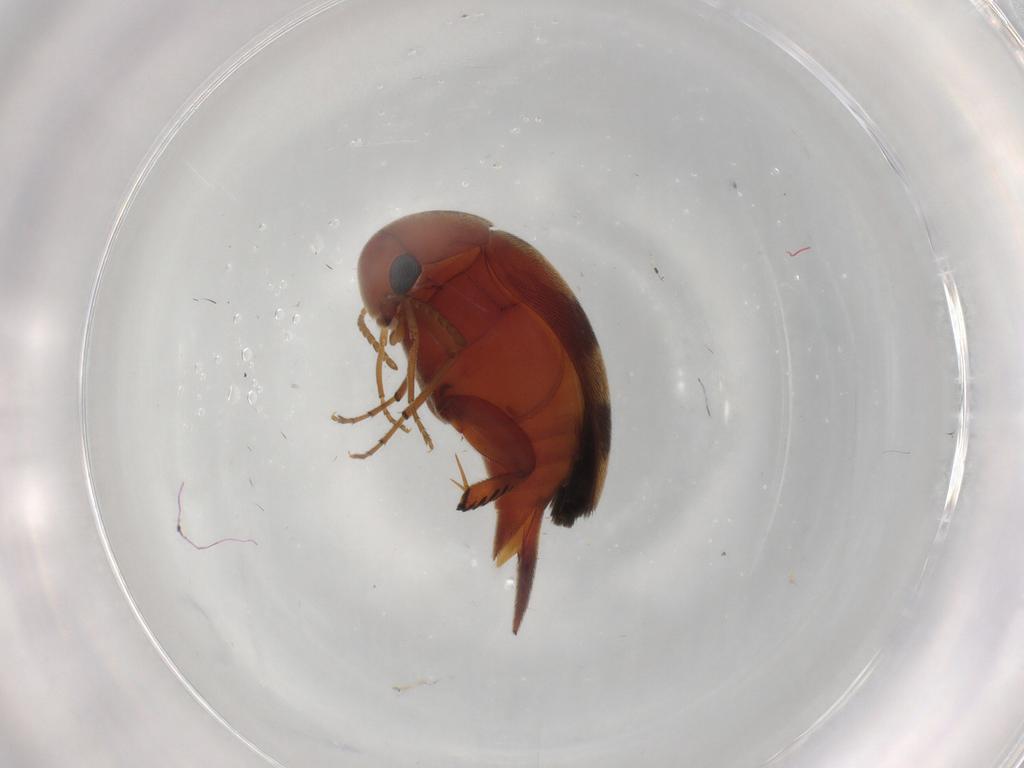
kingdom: Animalia
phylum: Arthropoda
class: Insecta
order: Coleoptera
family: Mordellidae
